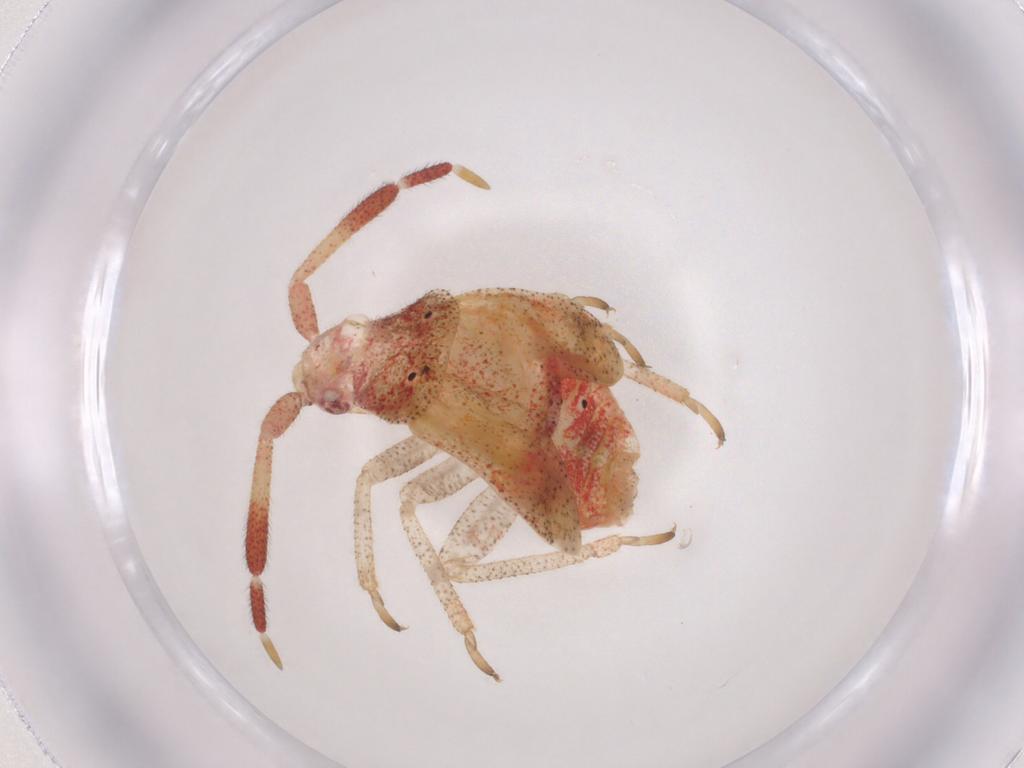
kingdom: Animalia
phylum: Arthropoda
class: Insecta
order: Hemiptera
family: Miridae
